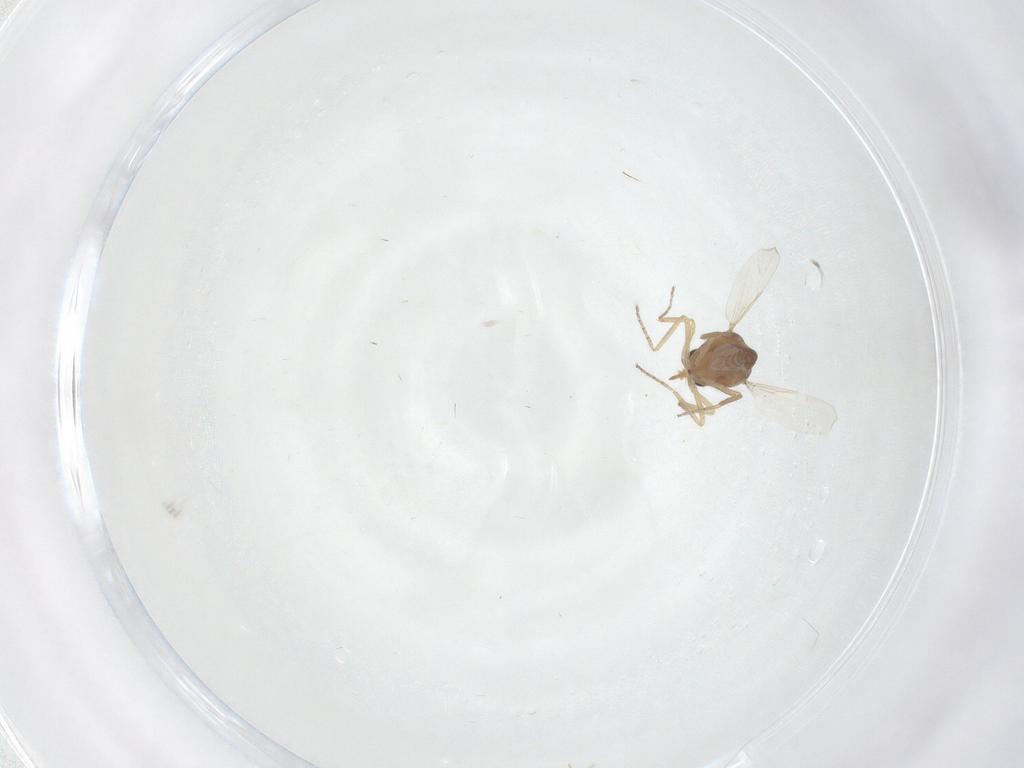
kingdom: Animalia
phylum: Arthropoda
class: Insecta
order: Diptera
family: Ceratopogonidae
